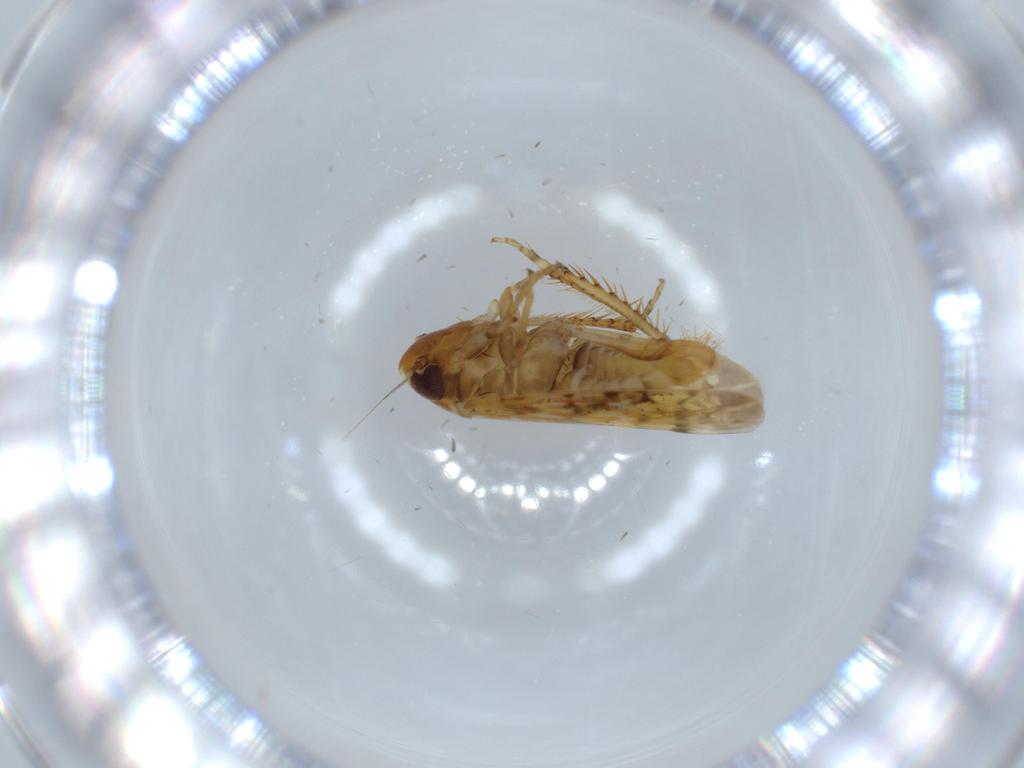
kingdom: Animalia
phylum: Arthropoda
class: Insecta
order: Hemiptera
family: Cicadellidae
